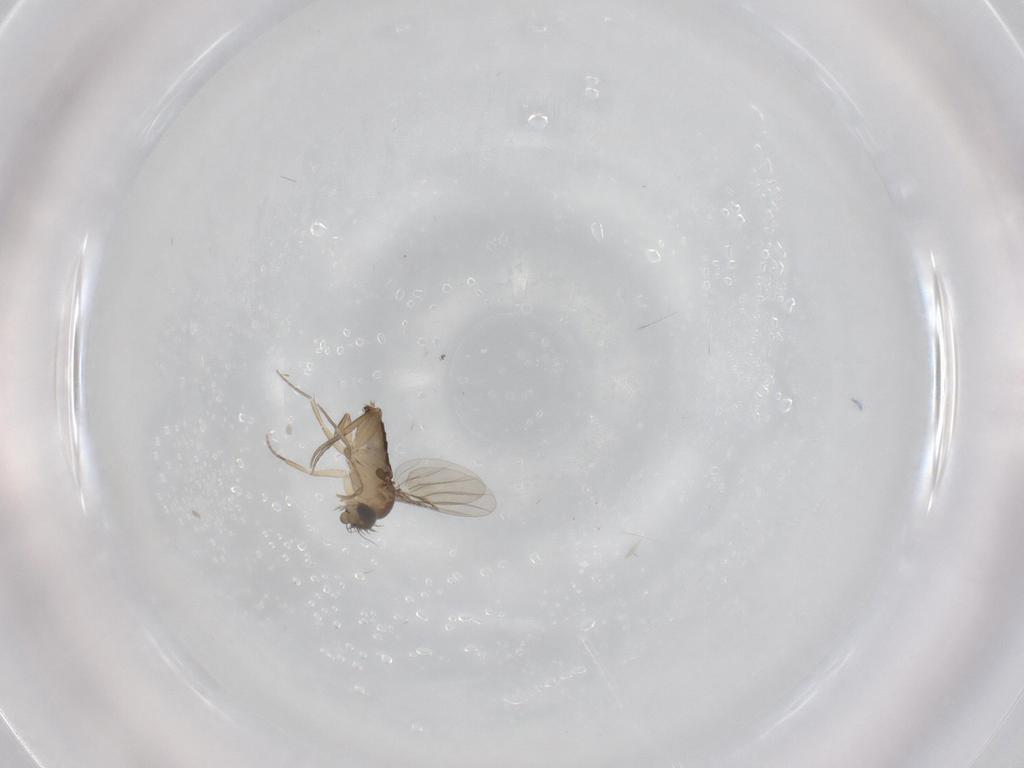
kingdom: Animalia
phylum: Arthropoda
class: Insecta
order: Diptera
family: Phoridae
